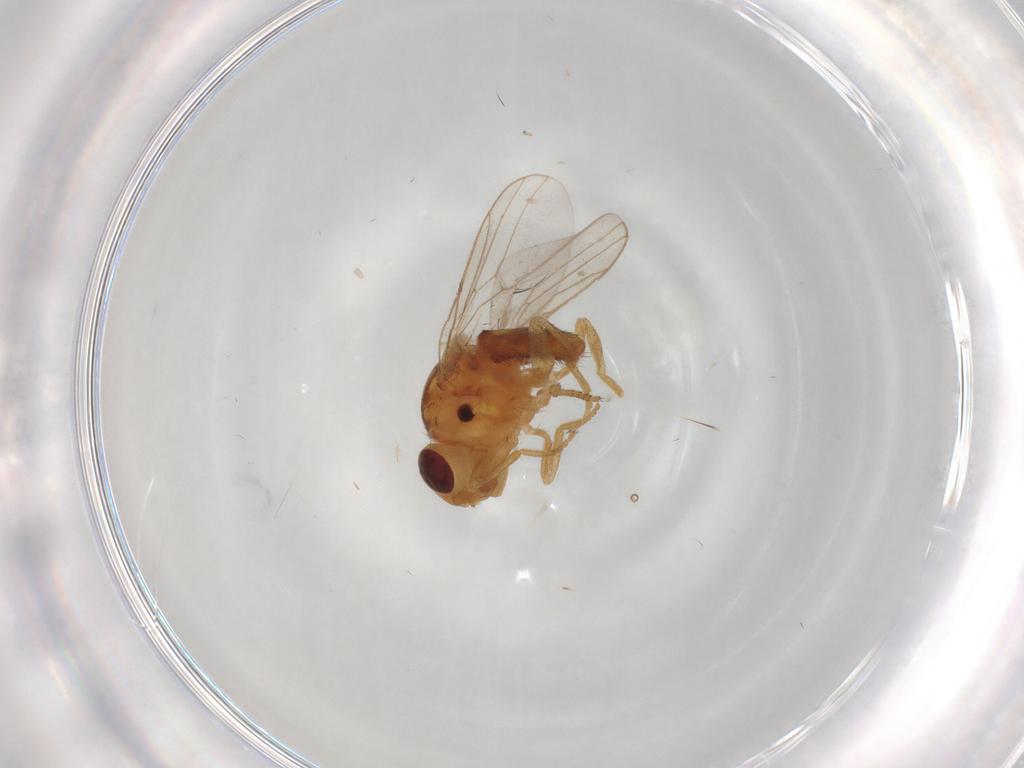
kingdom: Animalia
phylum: Arthropoda
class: Insecta
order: Diptera
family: Chloropidae
